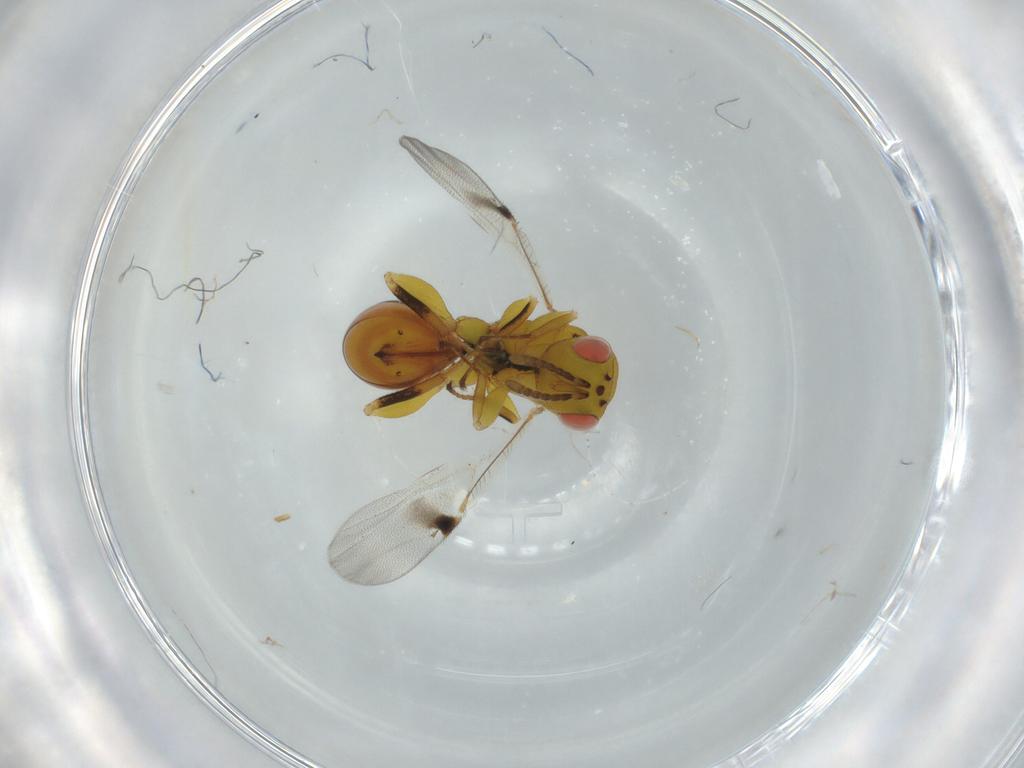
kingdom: Animalia
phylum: Arthropoda
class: Insecta
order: Hymenoptera
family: Eurytomidae
